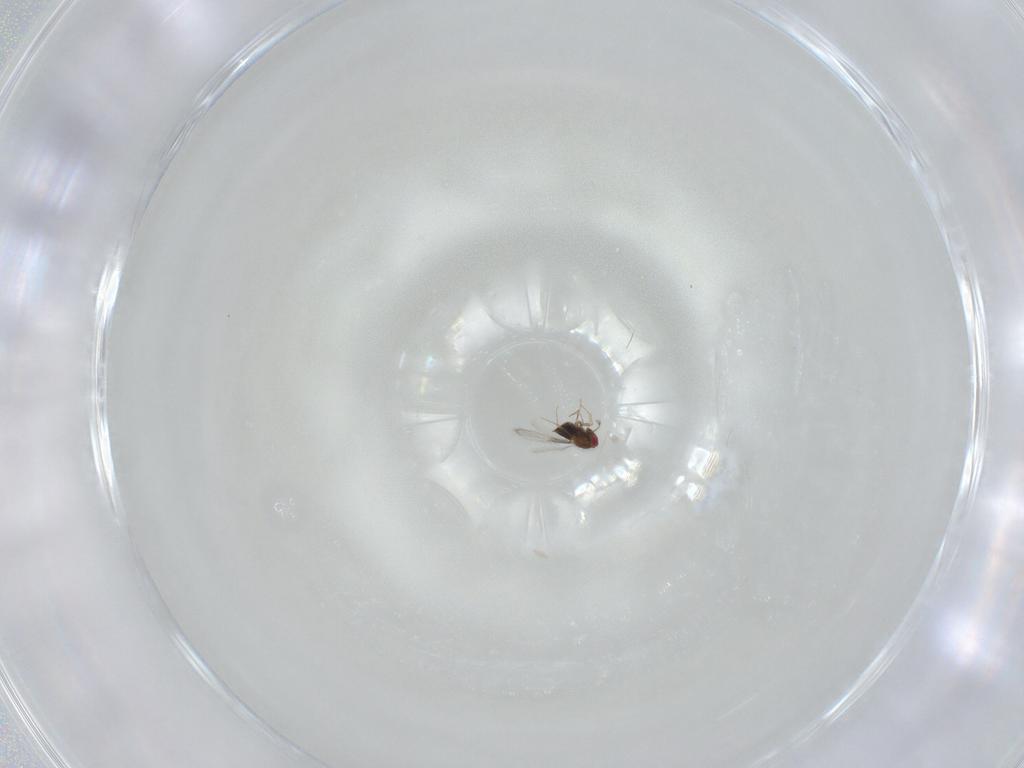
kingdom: Animalia
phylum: Arthropoda
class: Insecta
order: Hymenoptera
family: Trichogrammatidae
